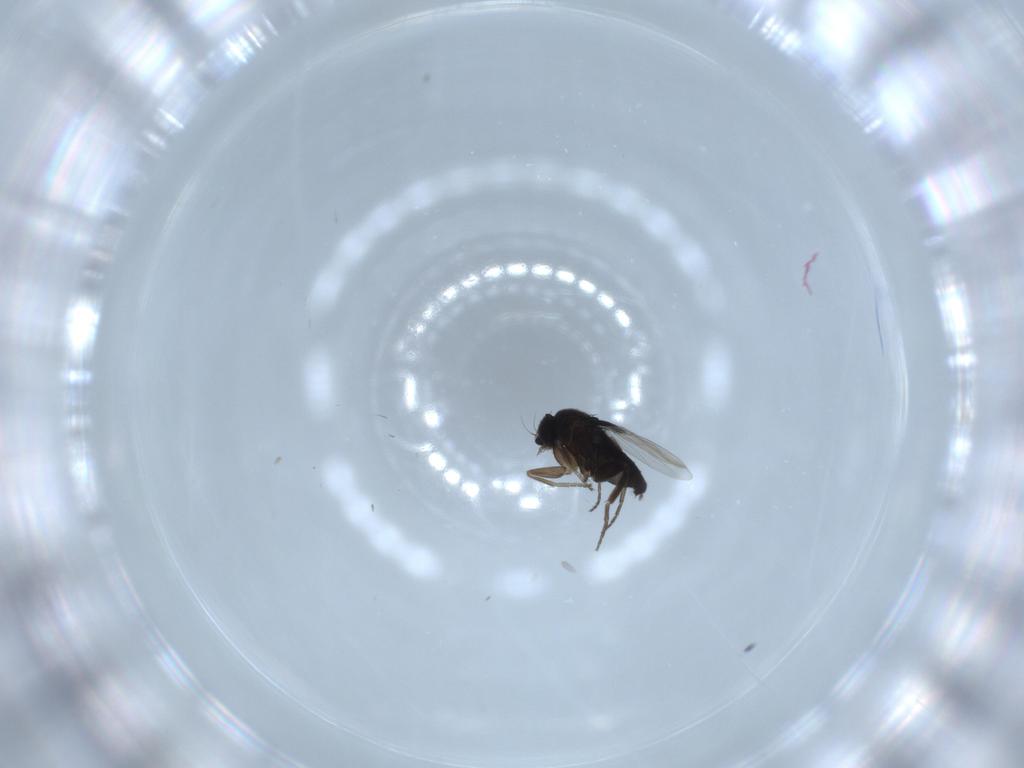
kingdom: Animalia
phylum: Arthropoda
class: Insecta
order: Diptera
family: Phoridae
